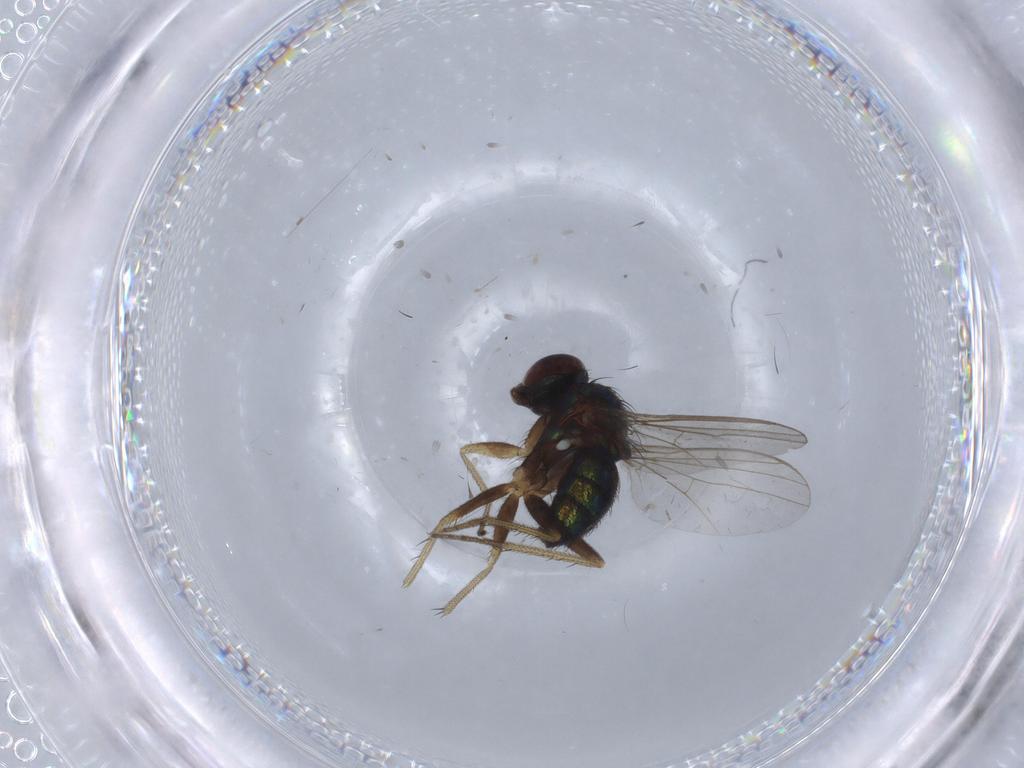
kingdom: Animalia
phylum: Arthropoda
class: Insecta
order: Diptera
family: Dolichopodidae
